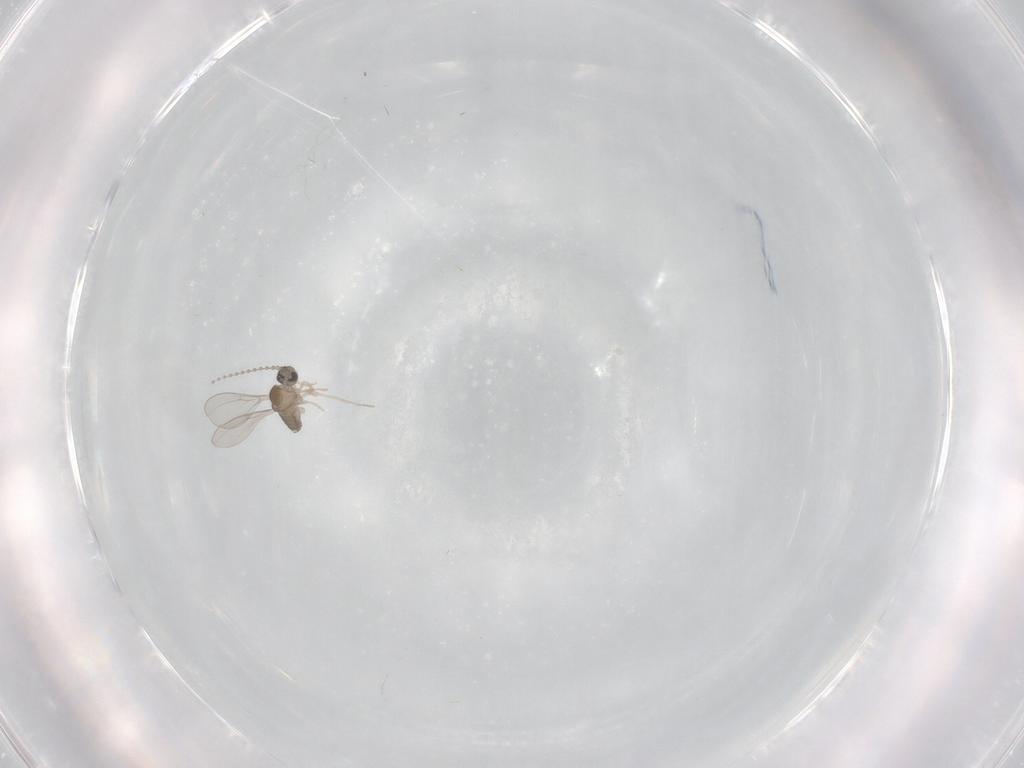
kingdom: Animalia
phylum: Arthropoda
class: Insecta
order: Diptera
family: Cecidomyiidae
